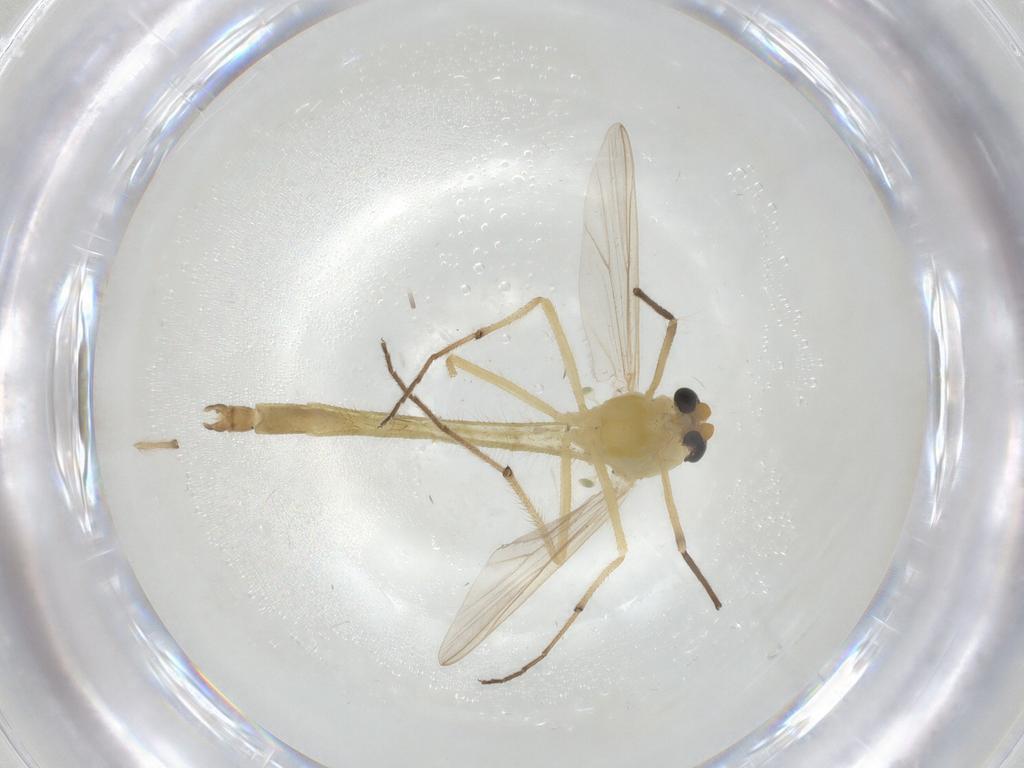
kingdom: Animalia
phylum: Arthropoda
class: Insecta
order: Diptera
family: Chironomidae
